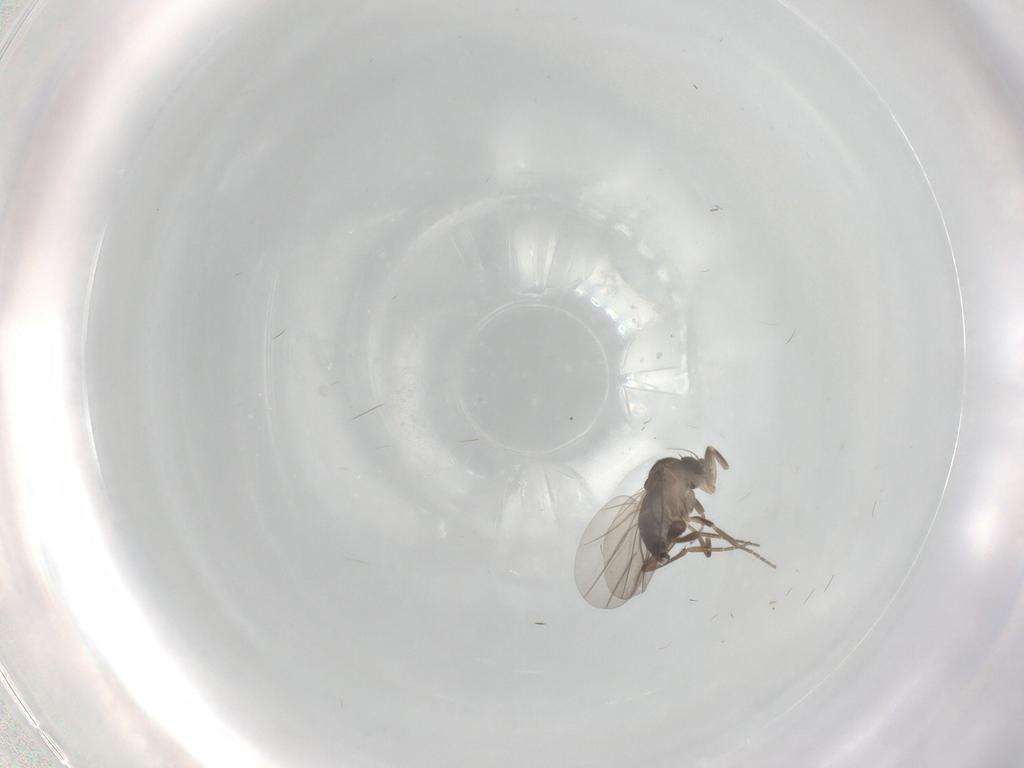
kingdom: Animalia
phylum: Arthropoda
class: Insecta
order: Diptera
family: Phoridae
